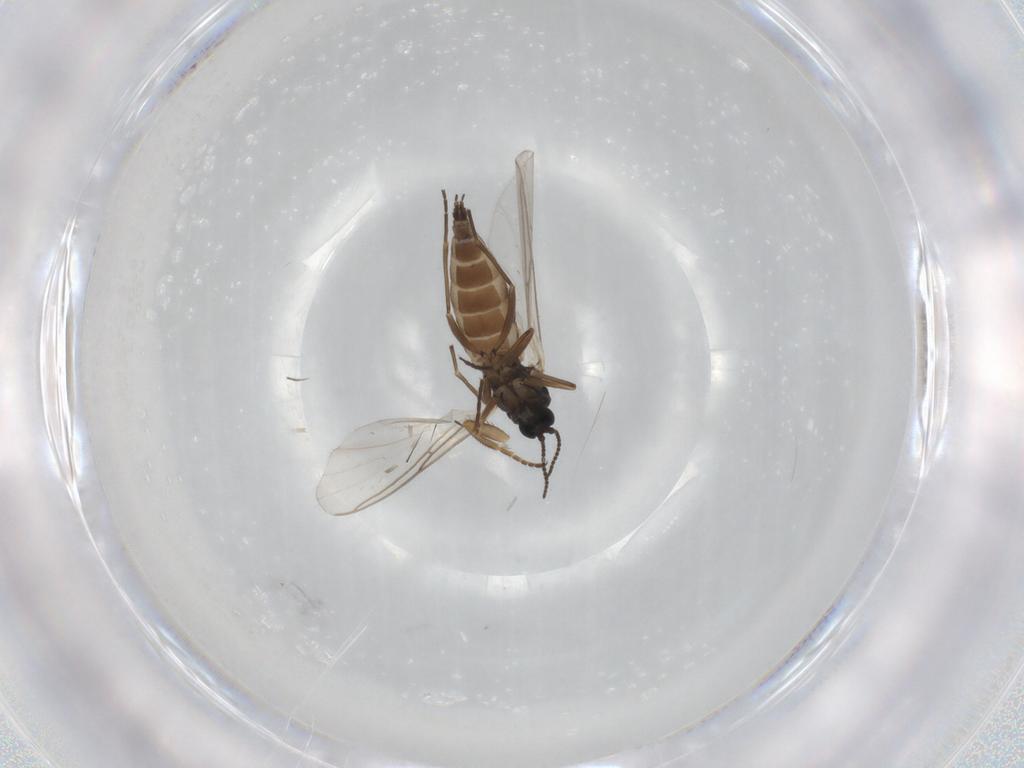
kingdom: Animalia
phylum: Arthropoda
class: Insecta
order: Diptera
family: Sciaridae
